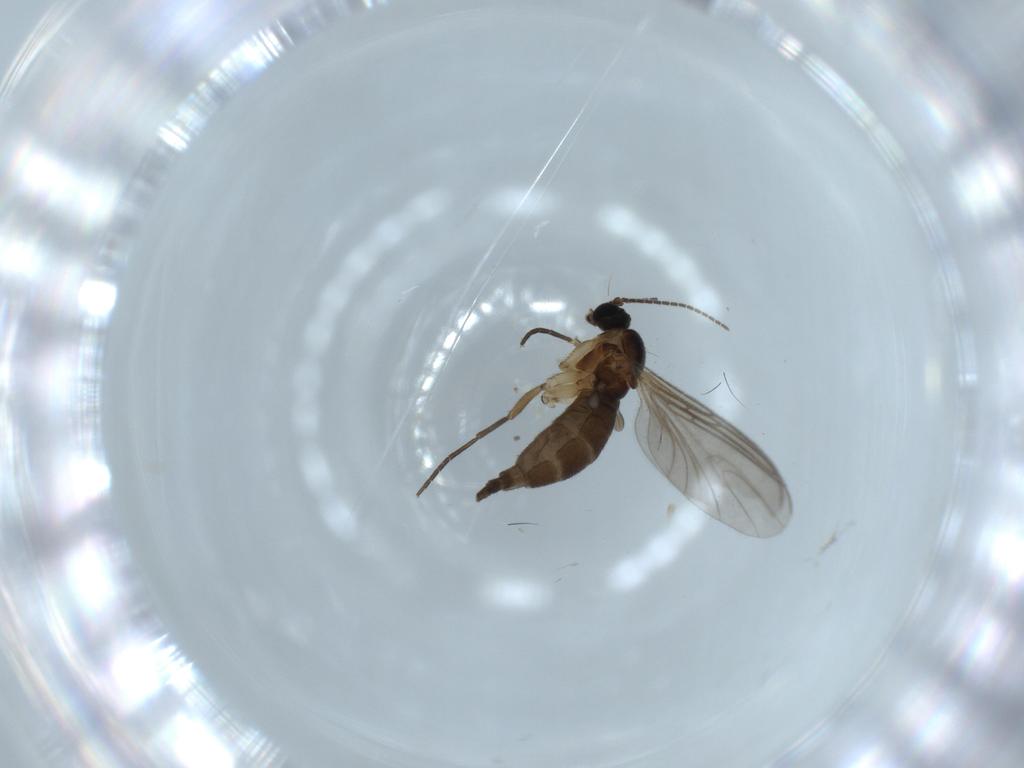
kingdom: Animalia
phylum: Arthropoda
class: Insecta
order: Diptera
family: Sciaridae
